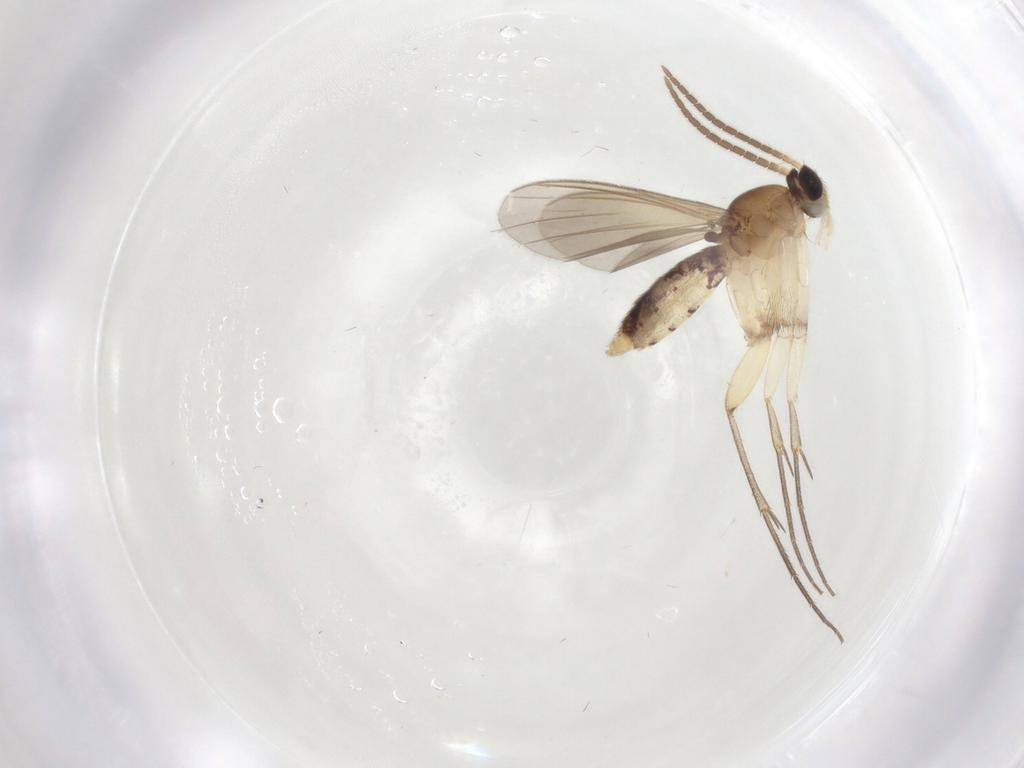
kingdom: Animalia
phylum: Arthropoda
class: Insecta
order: Diptera
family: Mycetophilidae
